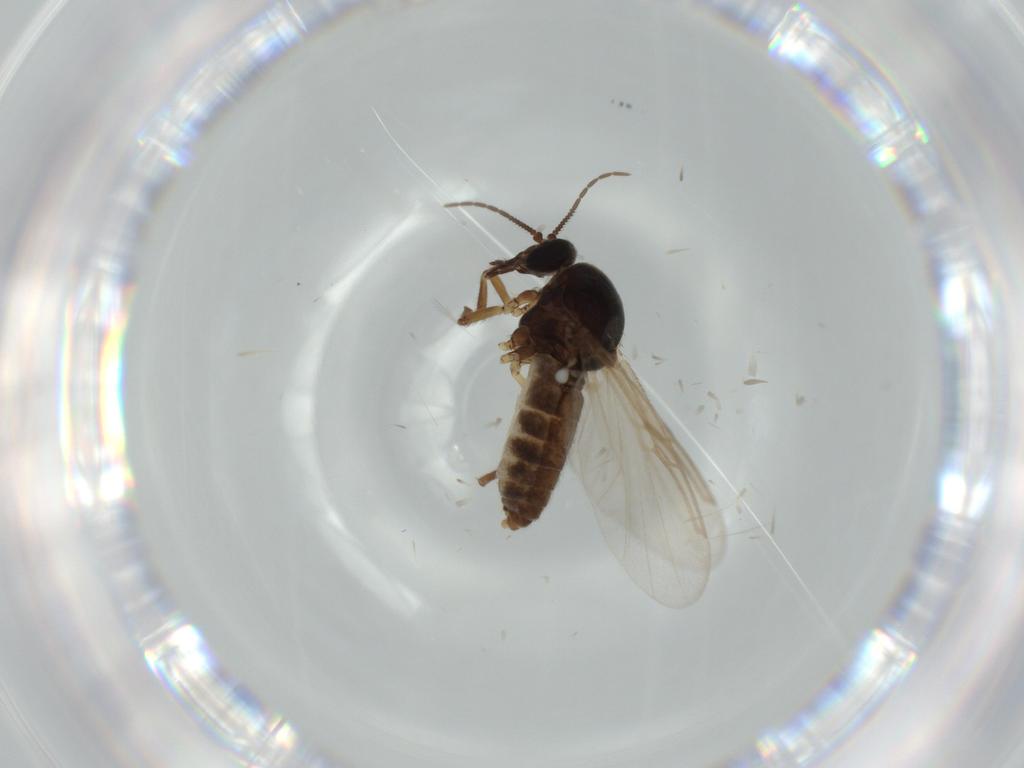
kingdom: Animalia
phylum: Arthropoda
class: Insecta
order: Diptera
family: Ceratopogonidae
